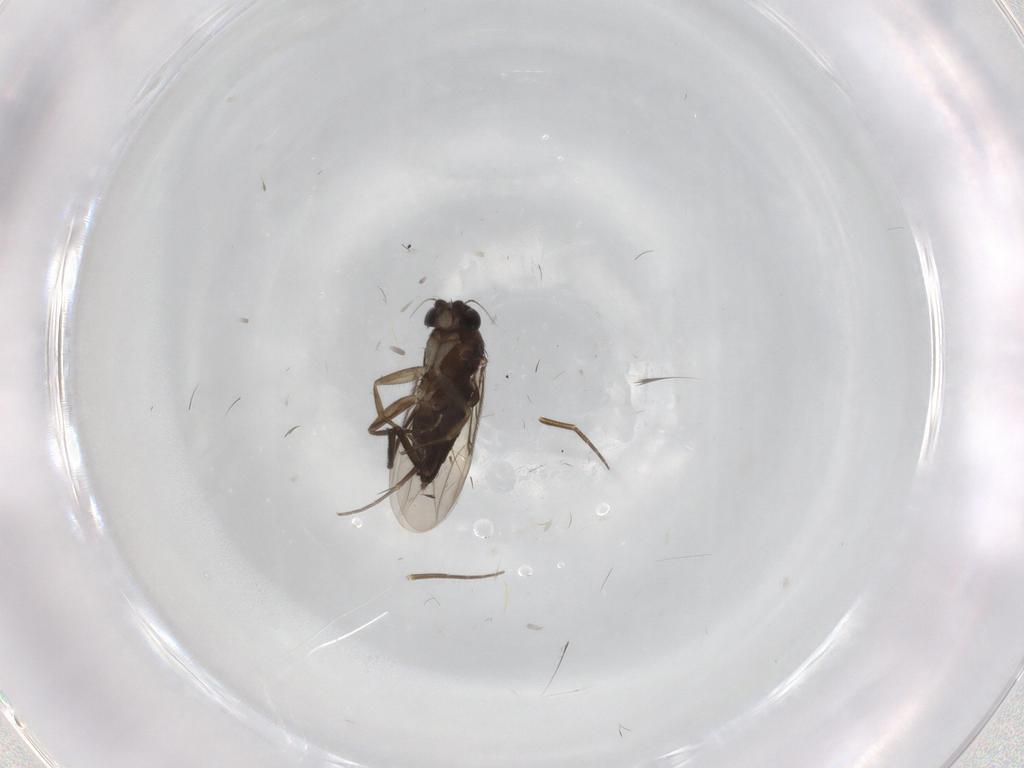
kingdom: Animalia
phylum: Arthropoda
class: Insecta
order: Diptera
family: Phoridae
